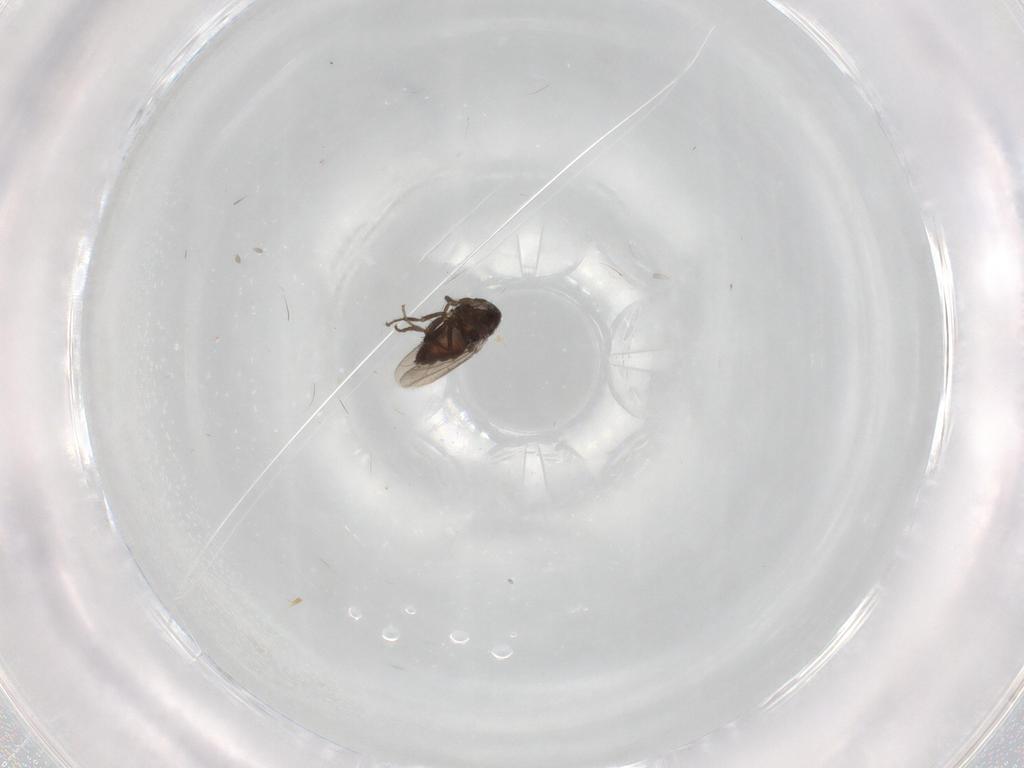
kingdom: Animalia
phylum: Arthropoda
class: Insecta
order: Diptera
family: Sphaeroceridae
